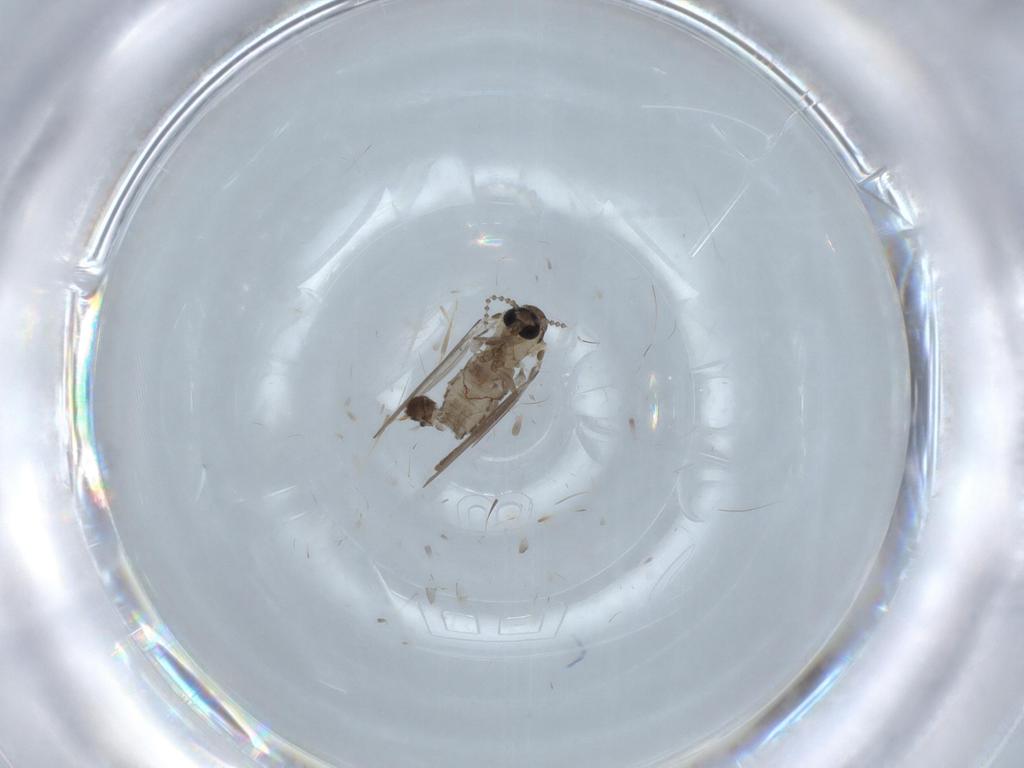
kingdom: Animalia
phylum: Arthropoda
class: Insecta
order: Diptera
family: Psychodidae
